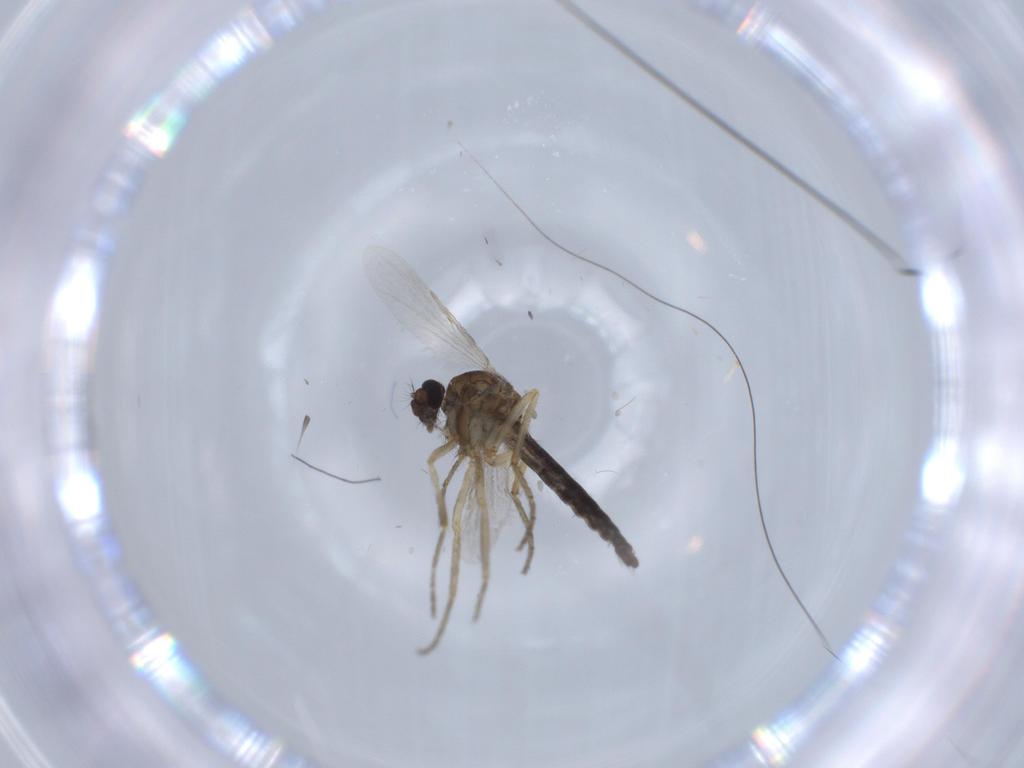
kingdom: Animalia
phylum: Arthropoda
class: Insecta
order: Diptera
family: Ceratopogonidae
